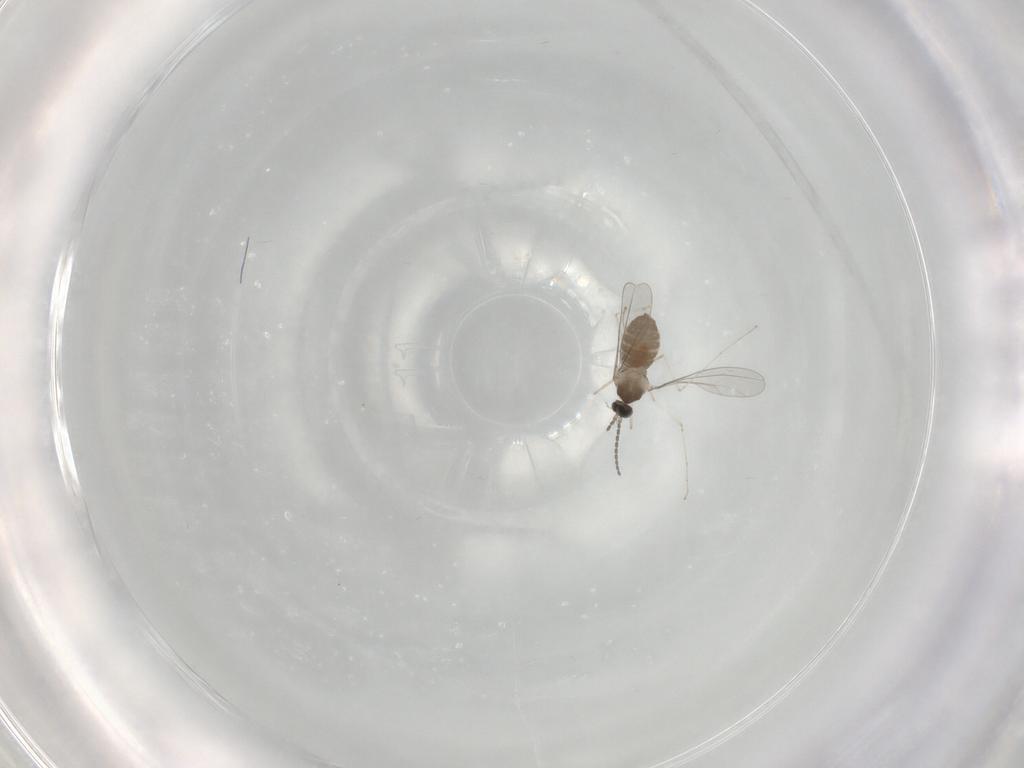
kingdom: Animalia
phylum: Arthropoda
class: Insecta
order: Diptera
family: Cecidomyiidae
